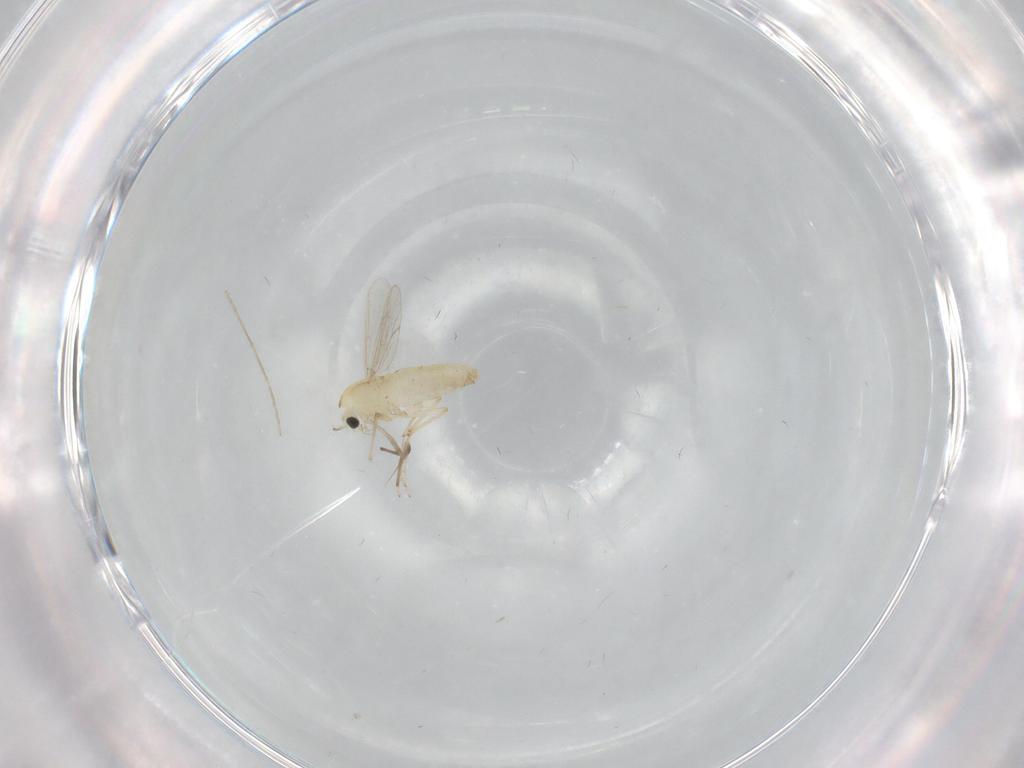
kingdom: Animalia
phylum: Arthropoda
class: Insecta
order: Diptera
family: Chironomidae
